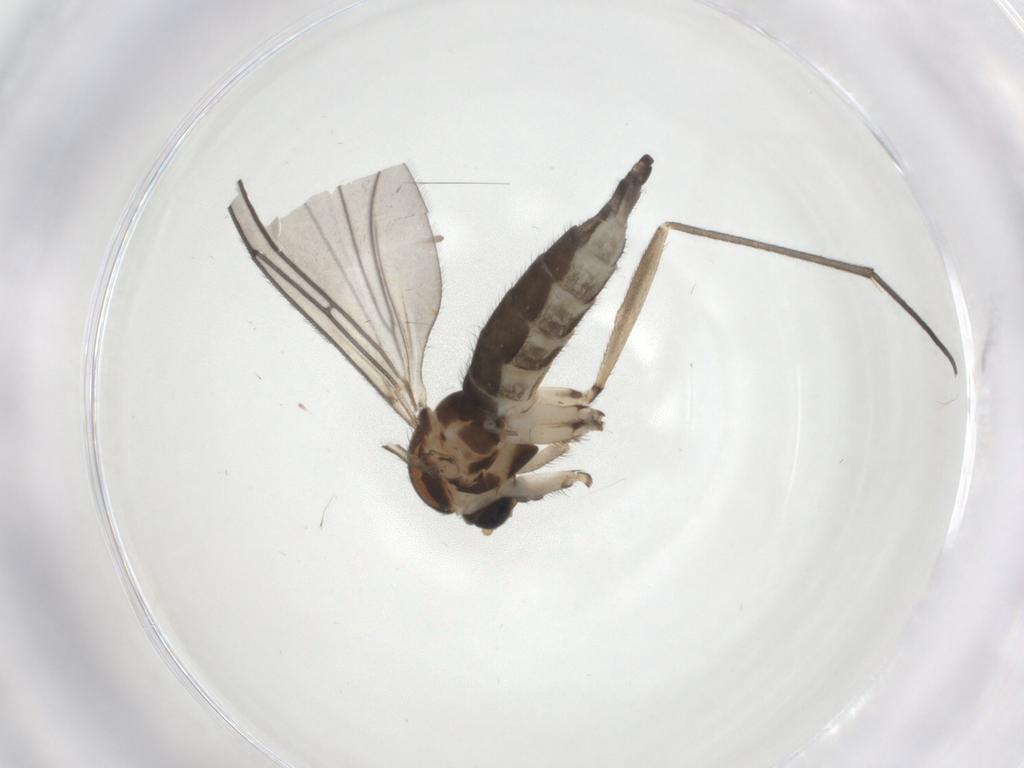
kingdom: Animalia
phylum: Arthropoda
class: Insecta
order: Diptera
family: Sciaridae
